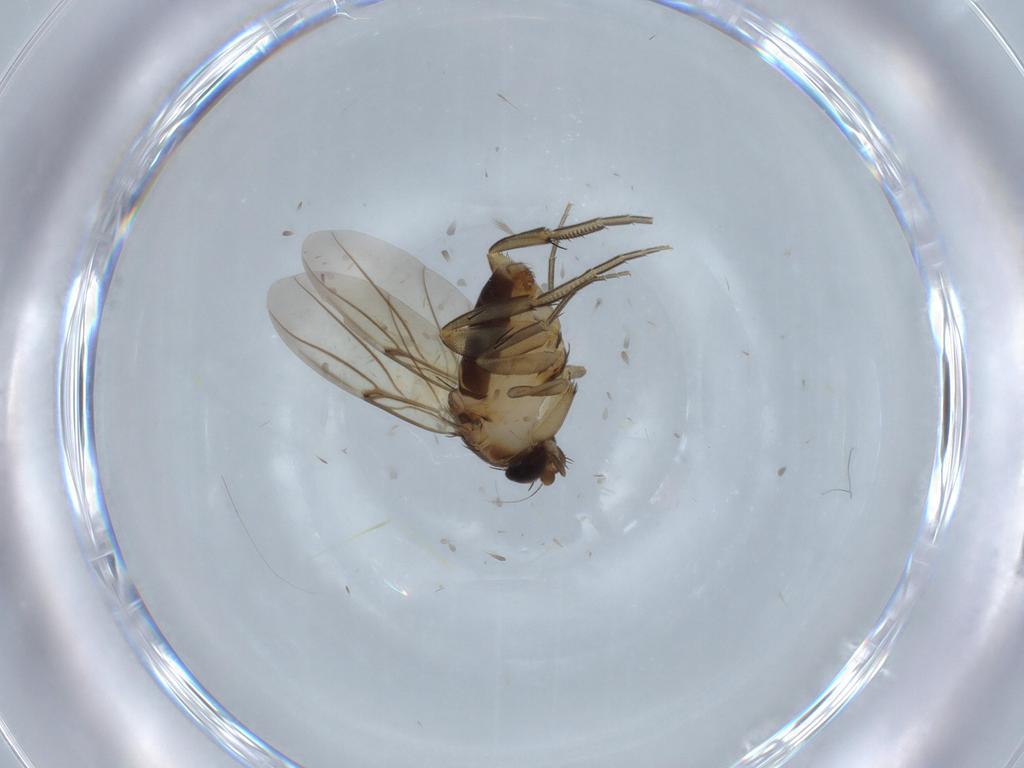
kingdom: Animalia
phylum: Arthropoda
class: Insecta
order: Diptera
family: Phoridae
